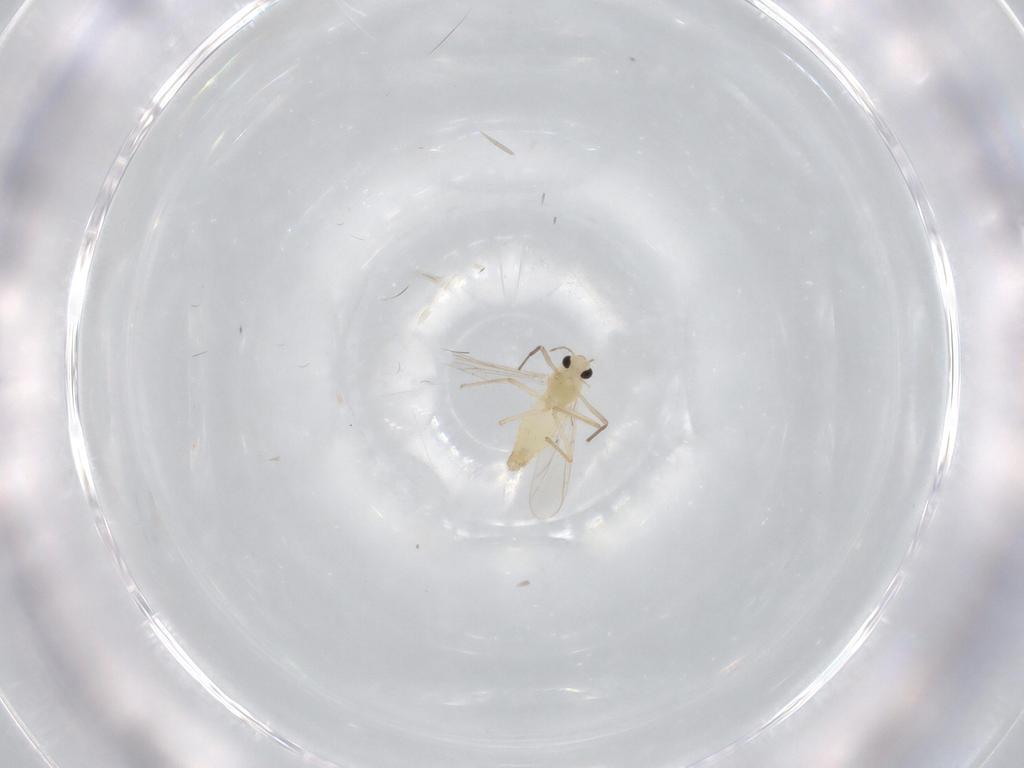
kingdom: Animalia
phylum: Arthropoda
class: Insecta
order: Diptera
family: Chironomidae
